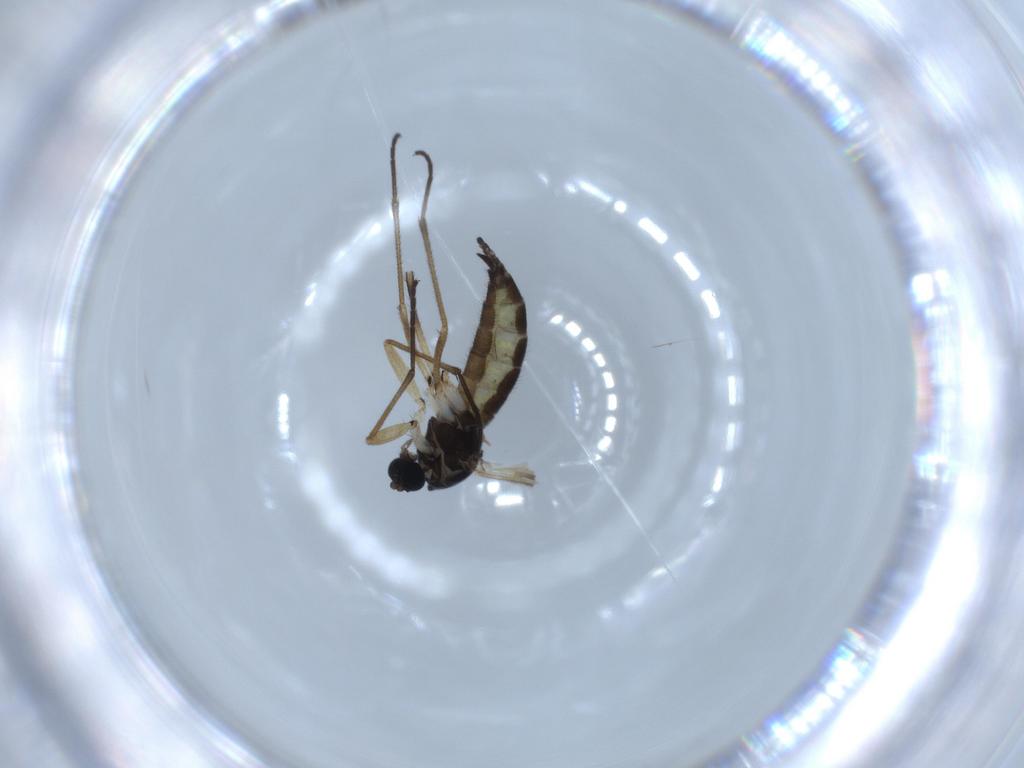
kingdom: Animalia
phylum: Arthropoda
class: Insecta
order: Diptera
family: Sciaridae
